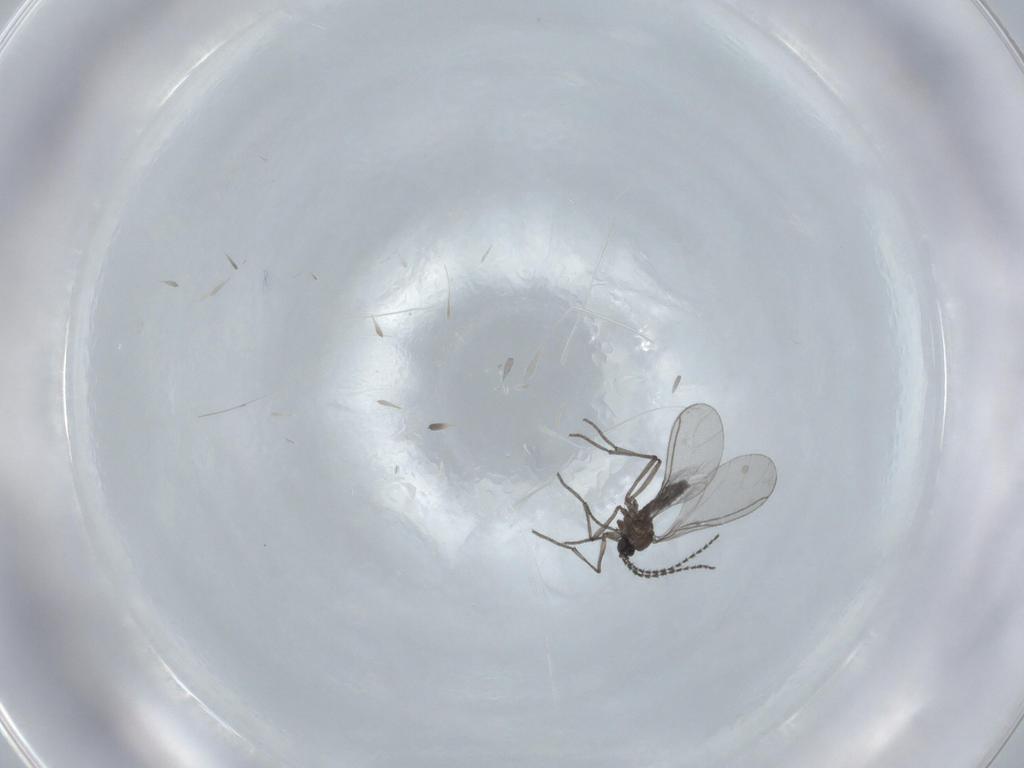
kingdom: Animalia
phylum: Arthropoda
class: Insecta
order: Diptera
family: Sciaridae
